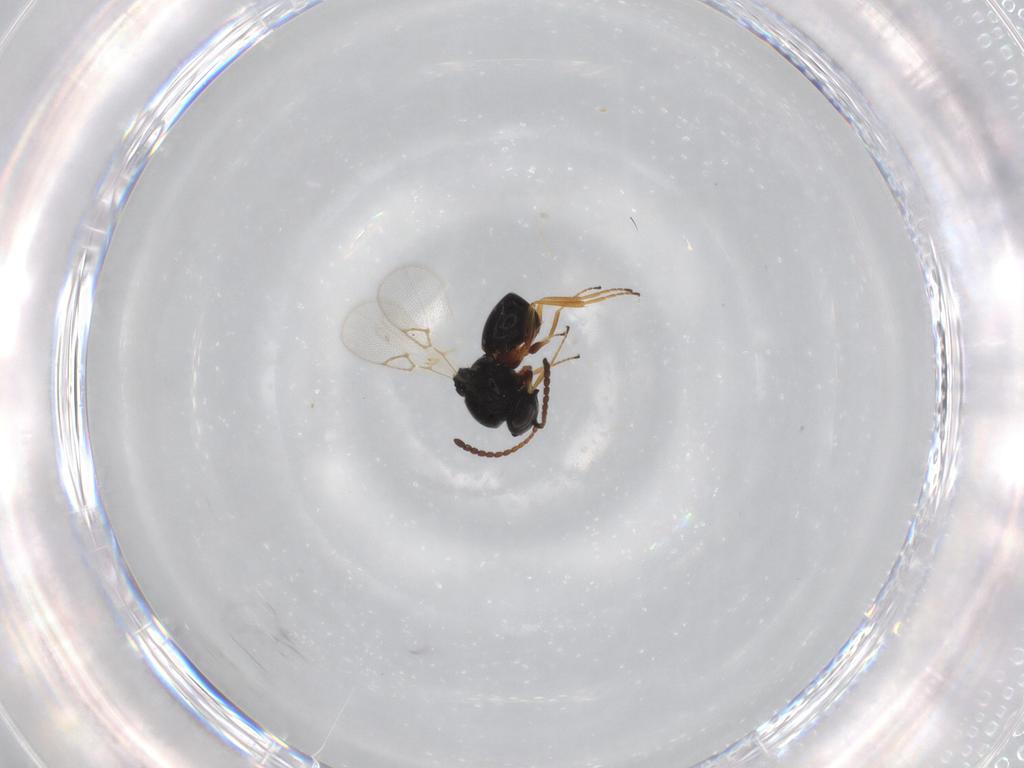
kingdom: Animalia
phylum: Arthropoda
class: Insecta
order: Hymenoptera
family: Figitidae
